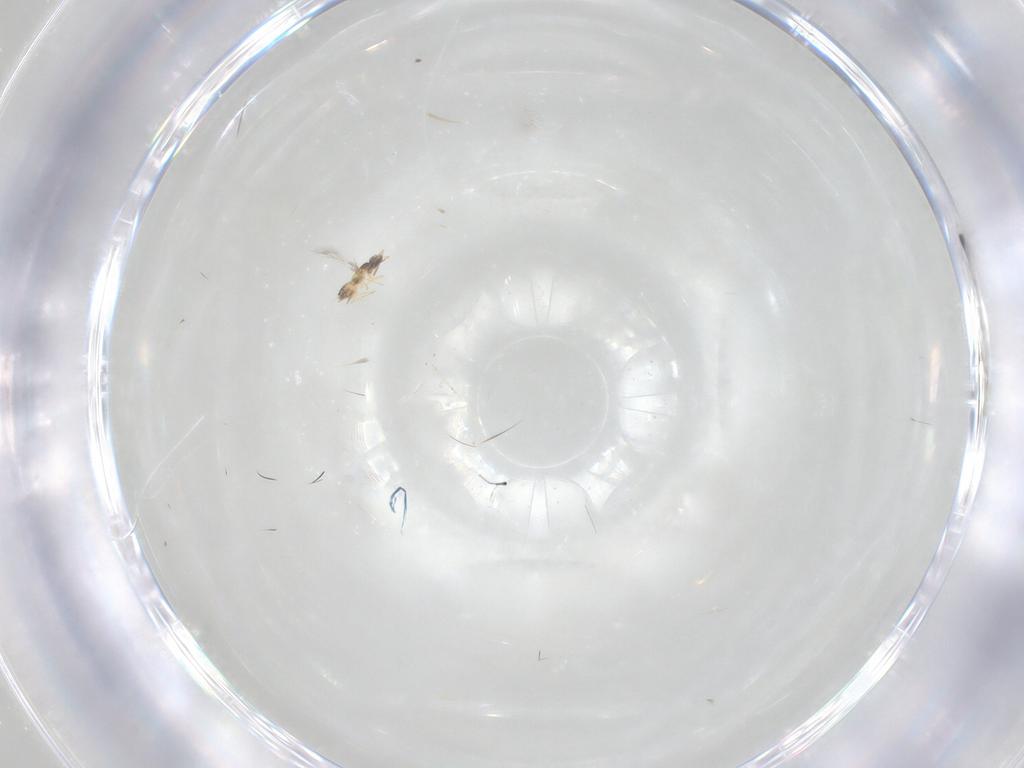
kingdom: Animalia
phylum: Arthropoda
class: Insecta
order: Hymenoptera
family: Mymaridae
